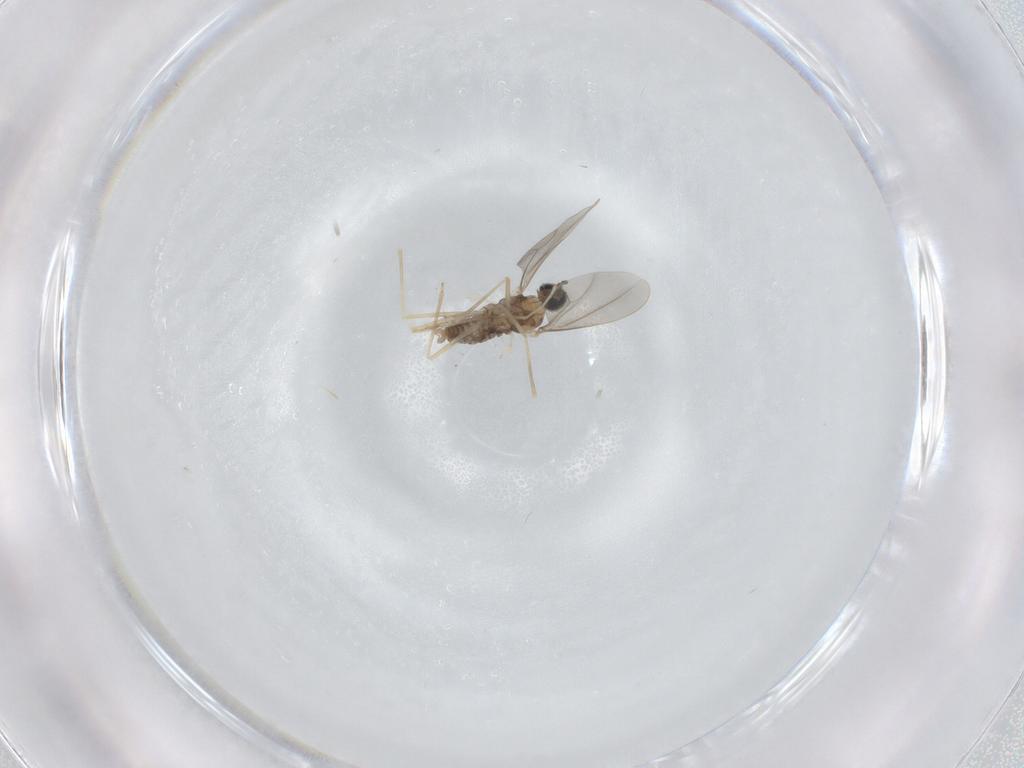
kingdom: Animalia
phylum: Arthropoda
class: Insecta
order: Diptera
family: Cecidomyiidae
